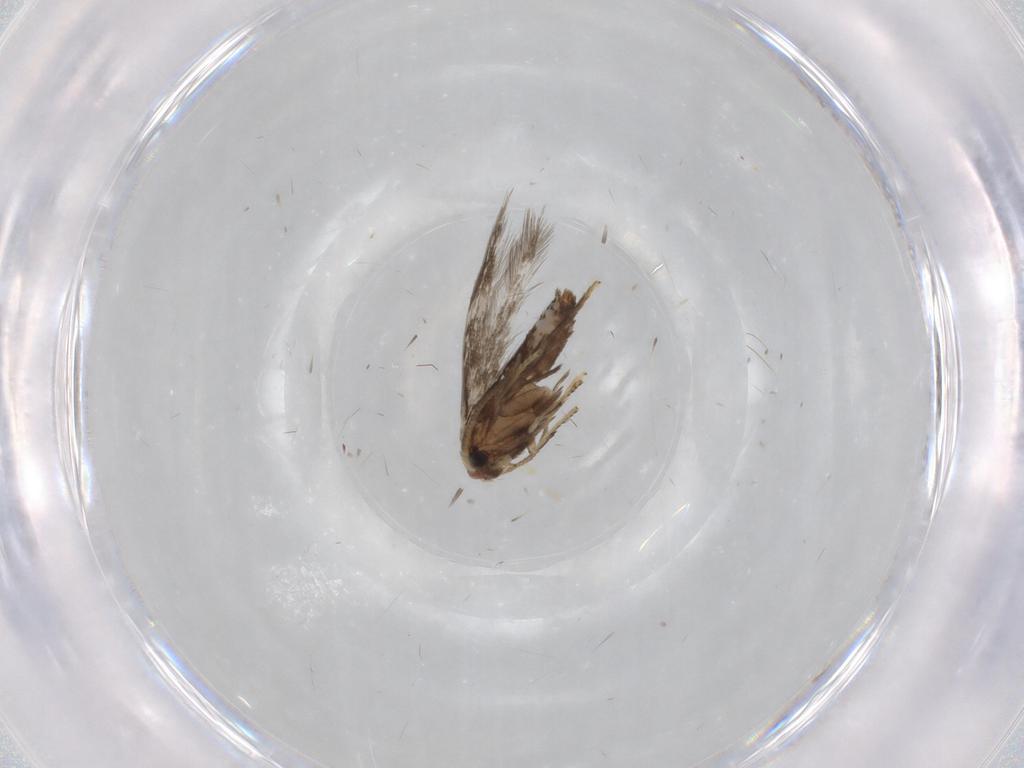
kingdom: Animalia
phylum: Arthropoda
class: Insecta
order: Lepidoptera
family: Nepticulidae
